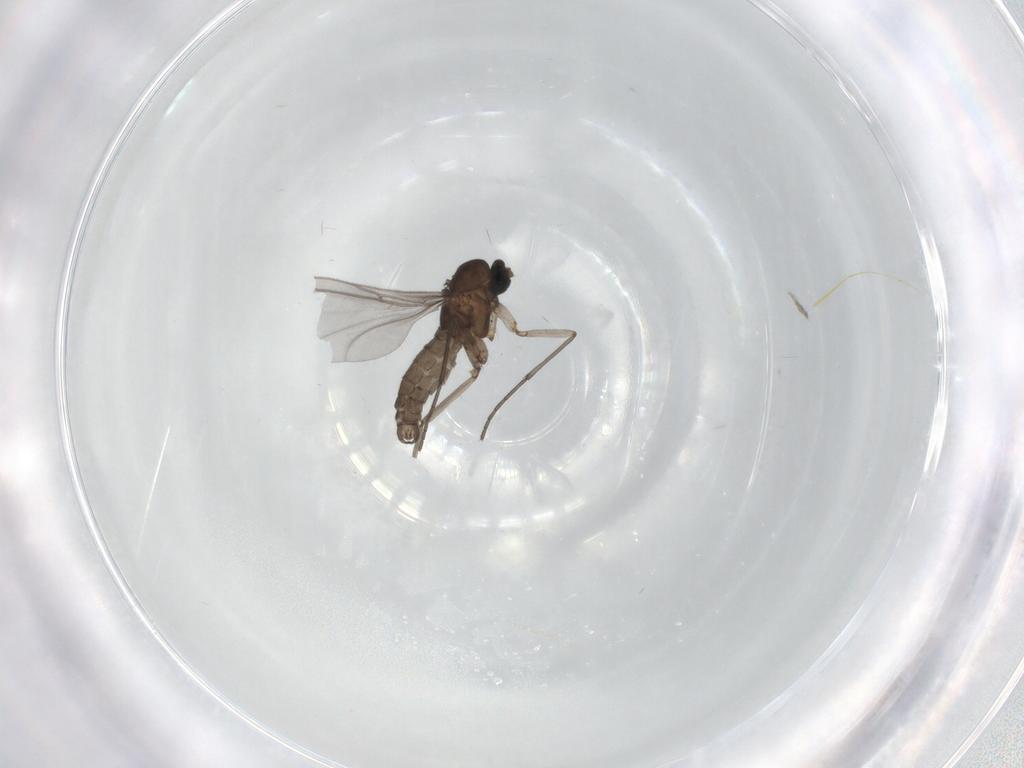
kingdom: Animalia
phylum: Arthropoda
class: Insecta
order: Diptera
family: Sciaridae
